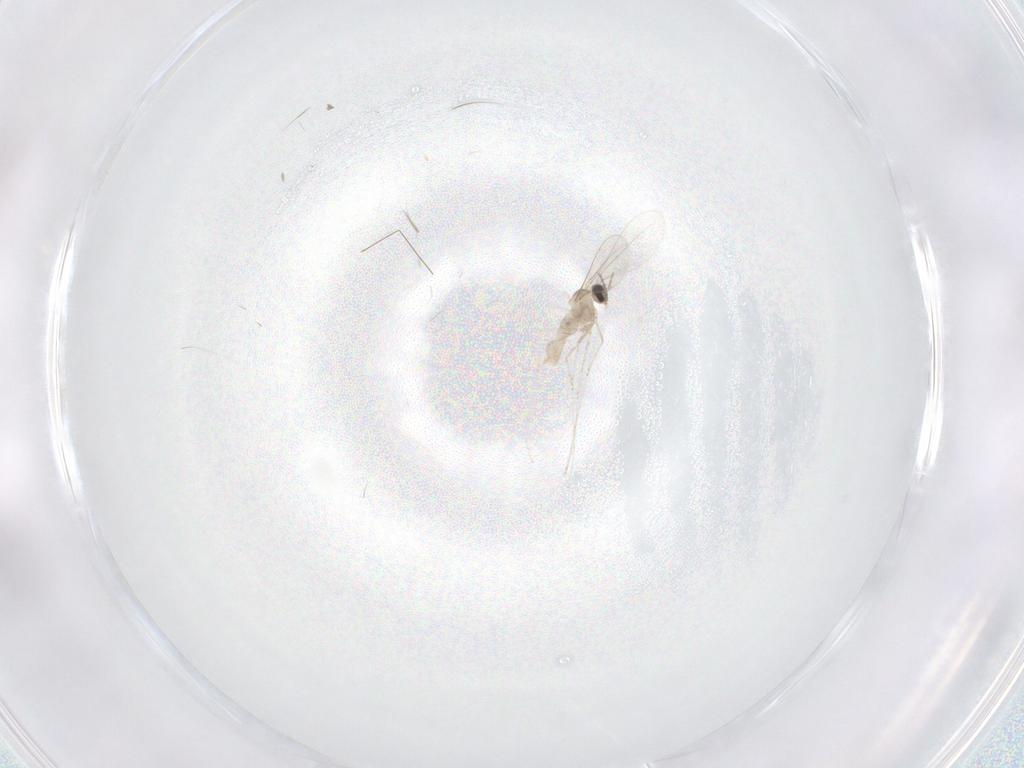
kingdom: Animalia
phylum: Arthropoda
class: Insecta
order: Diptera
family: Cecidomyiidae
